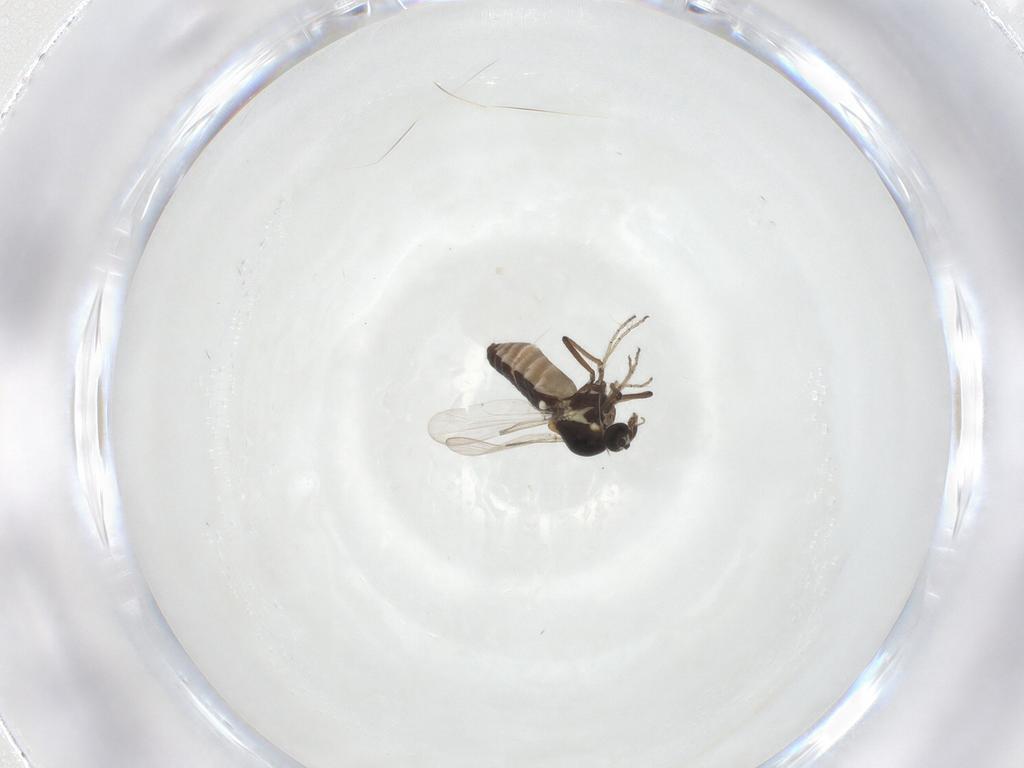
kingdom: Animalia
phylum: Arthropoda
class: Insecta
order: Diptera
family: Ceratopogonidae
